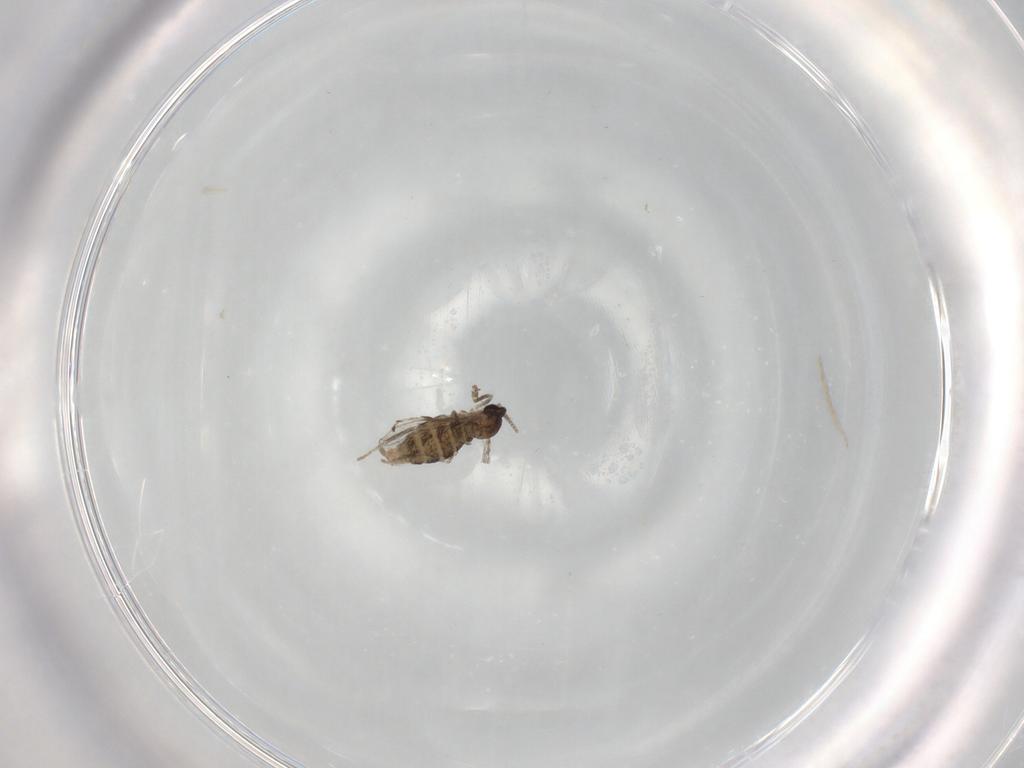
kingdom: Animalia
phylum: Arthropoda
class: Insecta
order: Diptera
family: Cecidomyiidae
